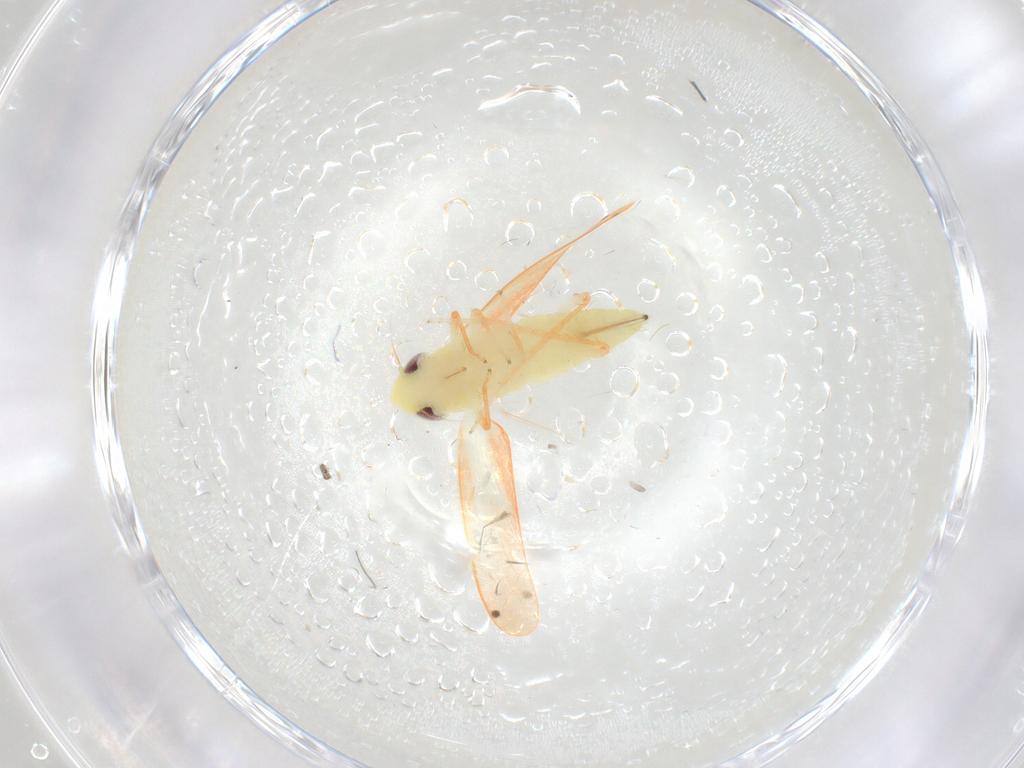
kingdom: Animalia
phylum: Arthropoda
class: Insecta
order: Hemiptera
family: Cicadellidae
